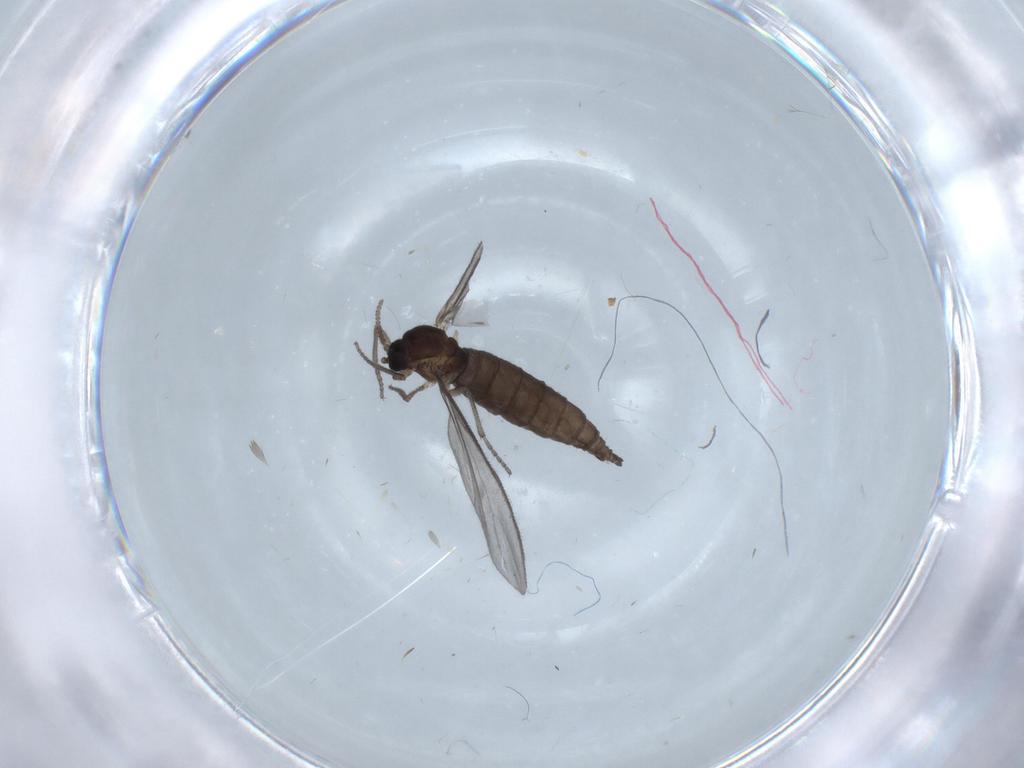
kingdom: Animalia
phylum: Arthropoda
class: Insecta
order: Diptera
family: Sciaridae
